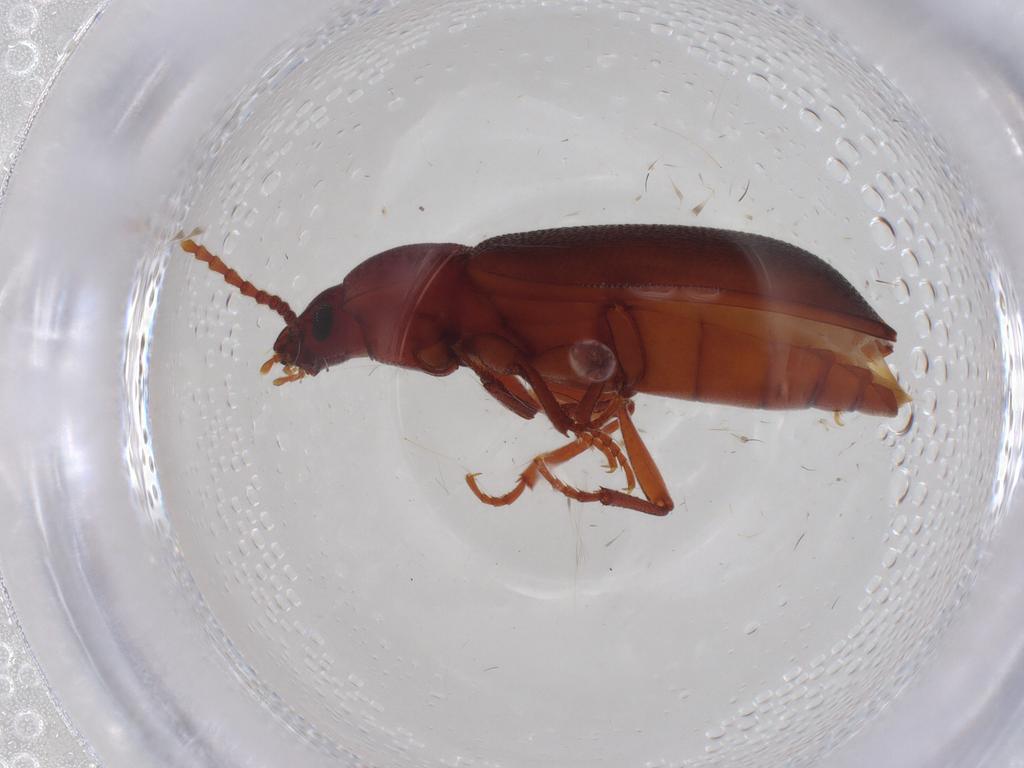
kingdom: Animalia
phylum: Arthropoda
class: Insecta
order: Coleoptera
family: Tenebrionidae
